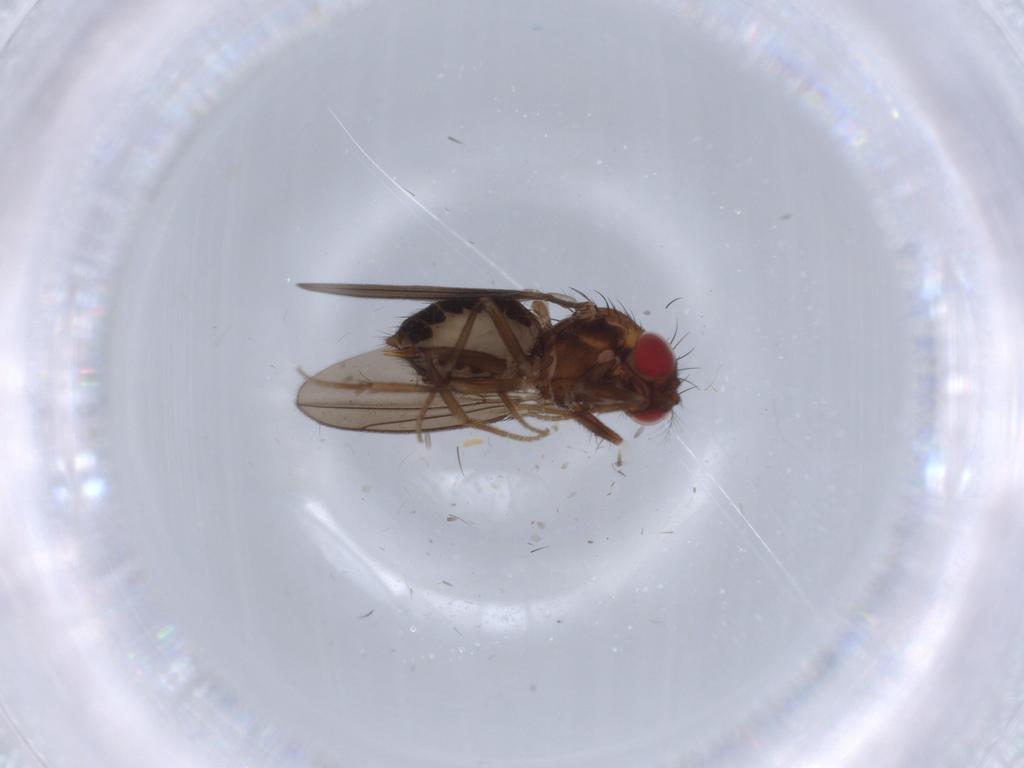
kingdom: Animalia
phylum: Arthropoda
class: Insecta
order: Diptera
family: Drosophilidae
